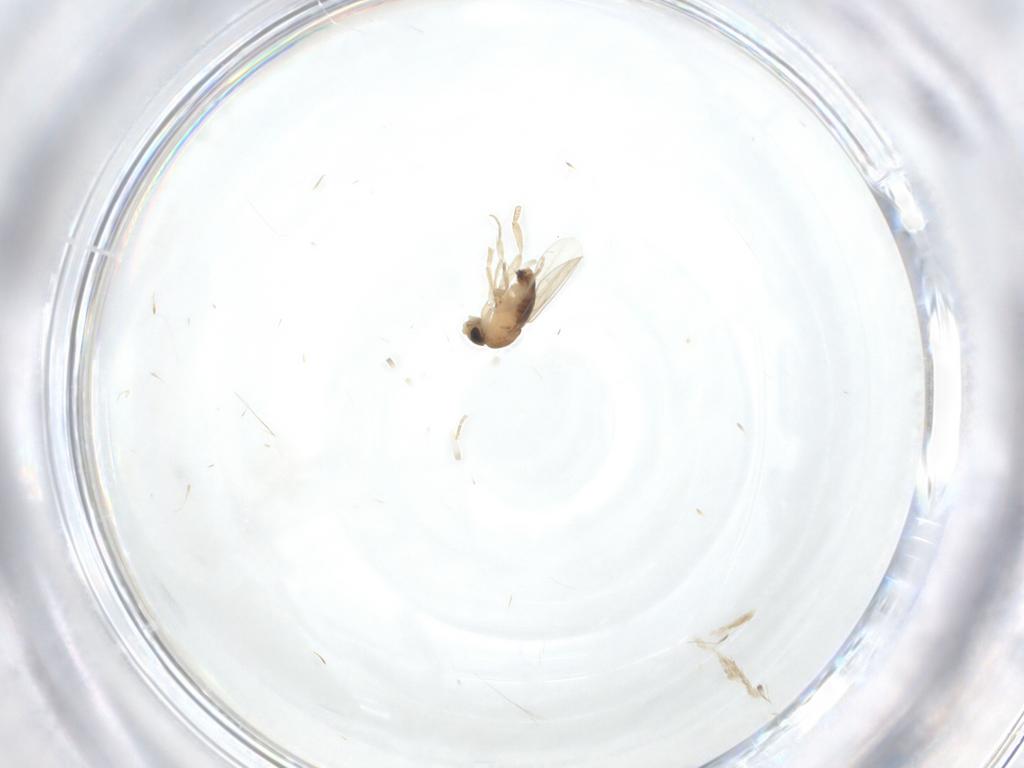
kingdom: Animalia
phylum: Arthropoda
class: Insecta
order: Diptera
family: Phoridae
